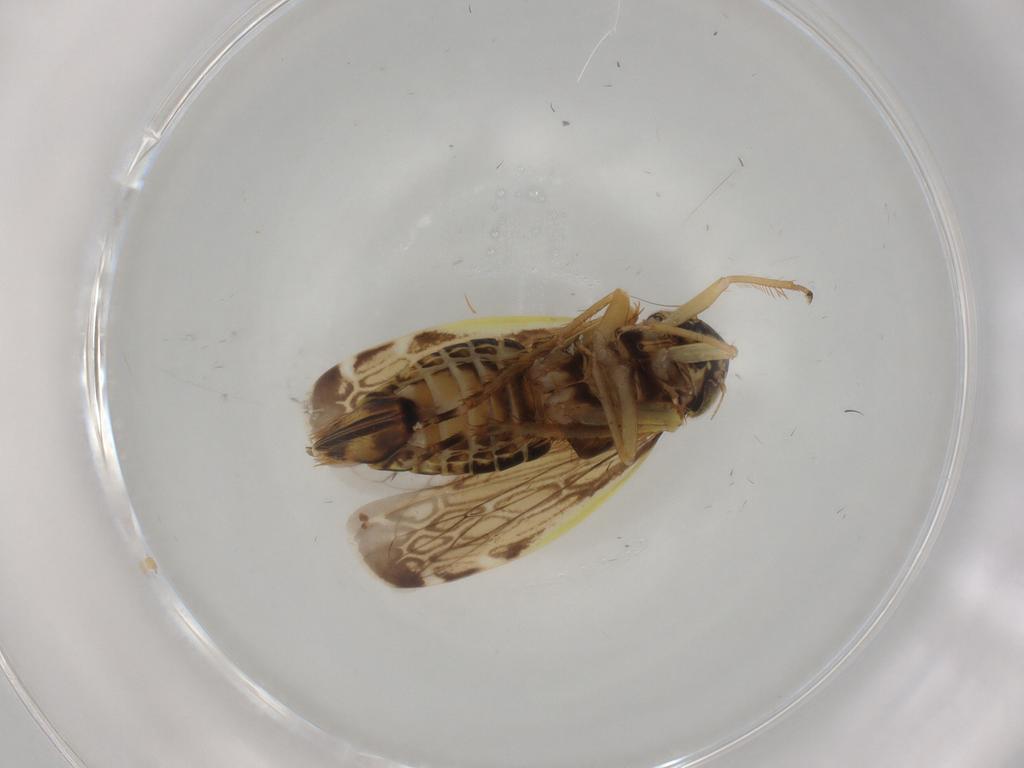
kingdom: Animalia
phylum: Arthropoda
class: Insecta
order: Hemiptera
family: Cicadellidae
